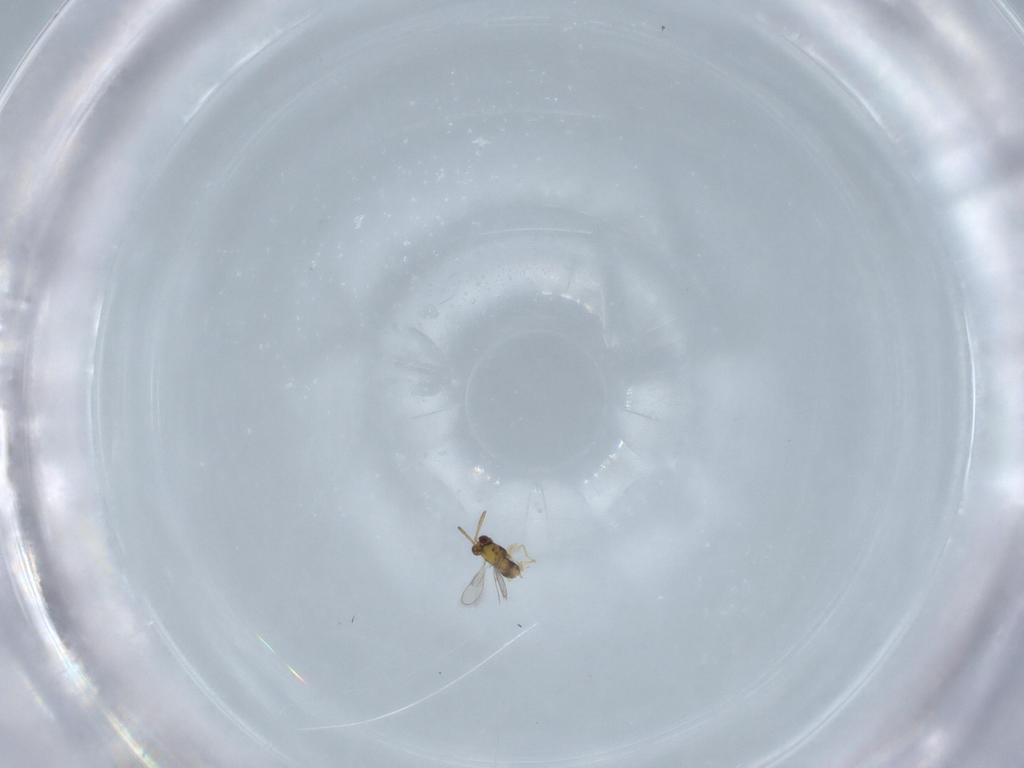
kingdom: Animalia
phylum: Arthropoda
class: Insecta
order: Hymenoptera
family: Aphelinidae
